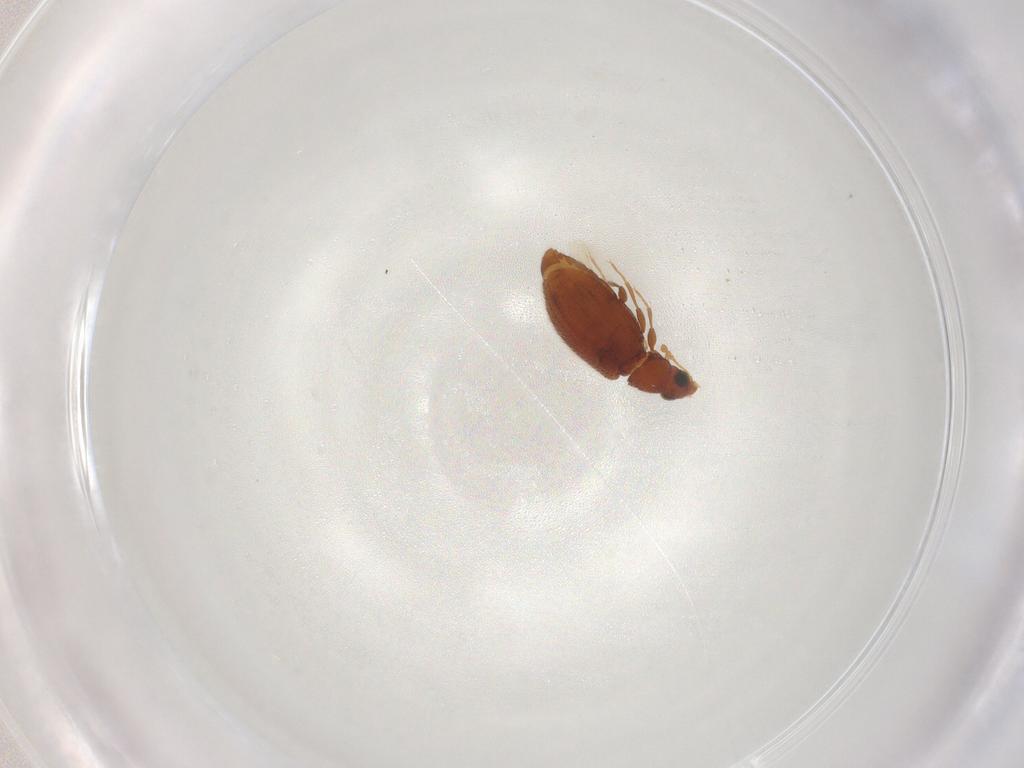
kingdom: Animalia
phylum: Arthropoda
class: Insecta
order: Coleoptera
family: Latridiidae
